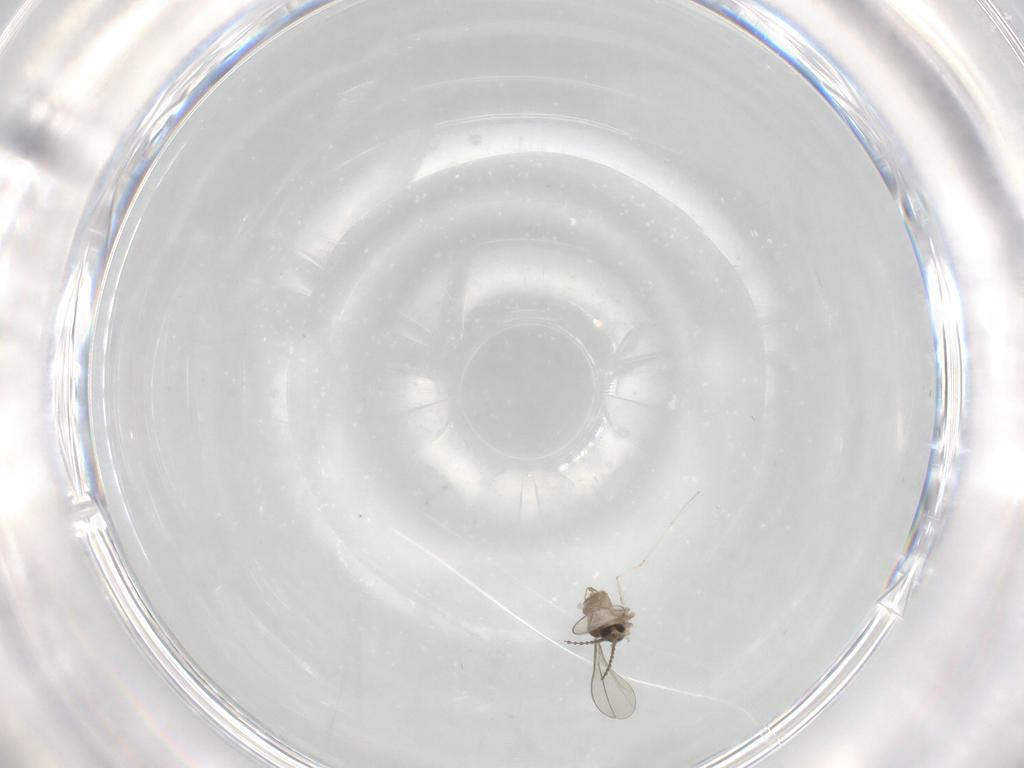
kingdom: Animalia
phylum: Arthropoda
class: Insecta
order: Diptera
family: Cecidomyiidae
